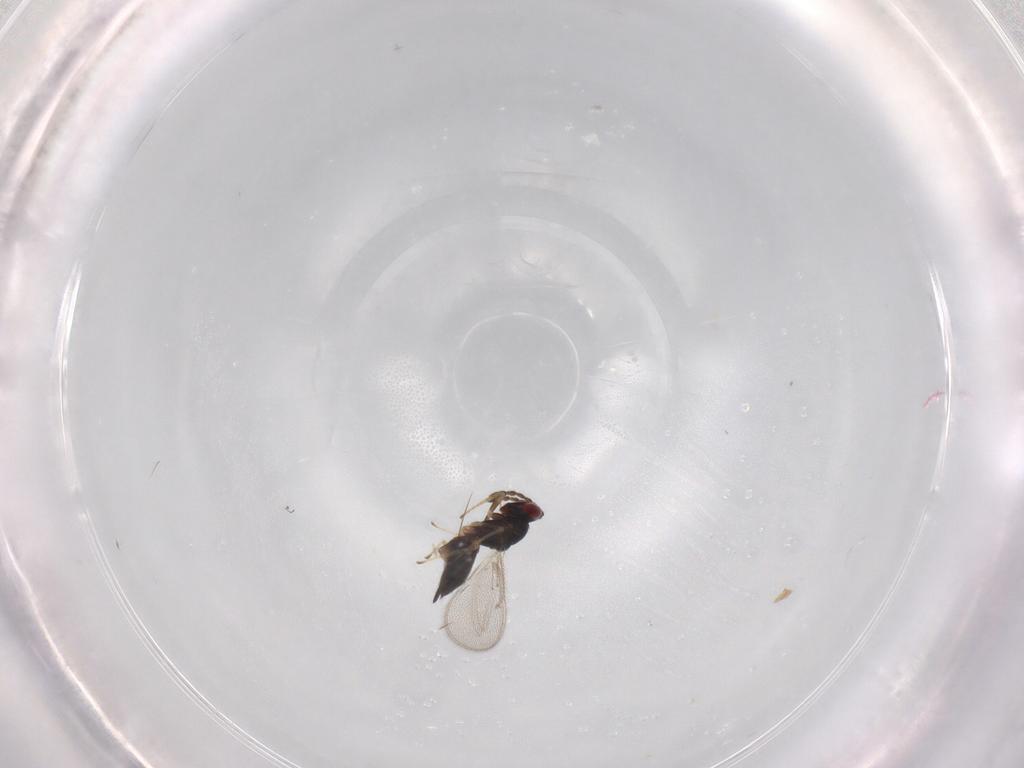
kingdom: Animalia
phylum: Arthropoda
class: Insecta
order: Hymenoptera
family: Eulophidae
